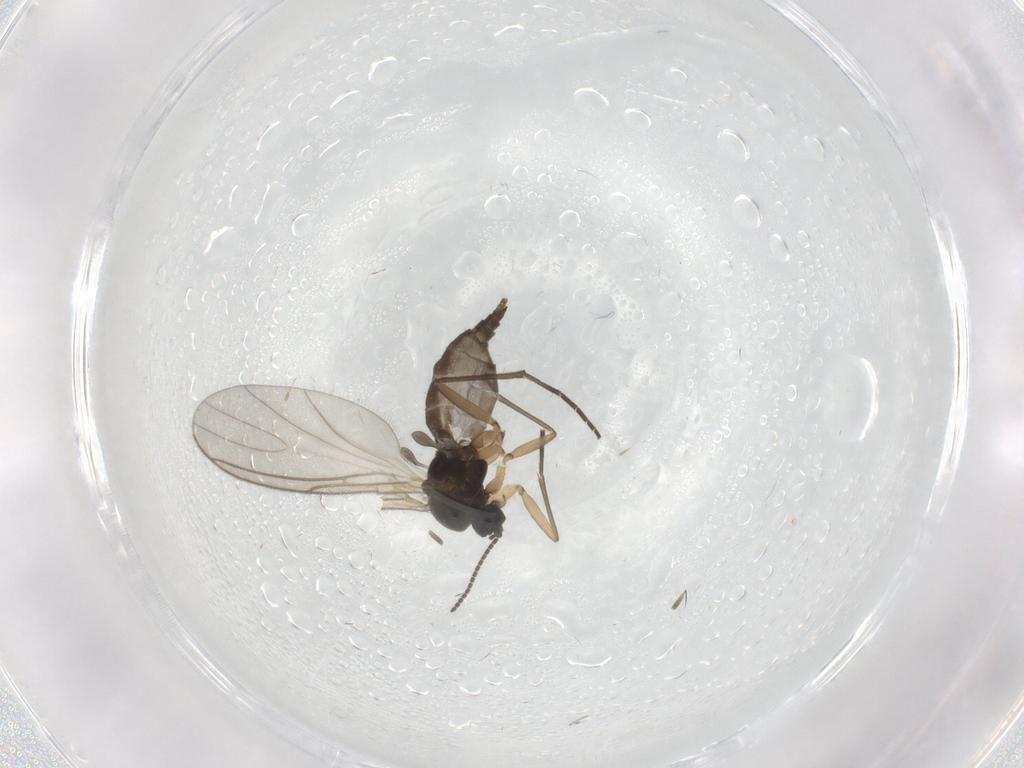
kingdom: Animalia
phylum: Arthropoda
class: Insecta
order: Diptera
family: Sciaridae
